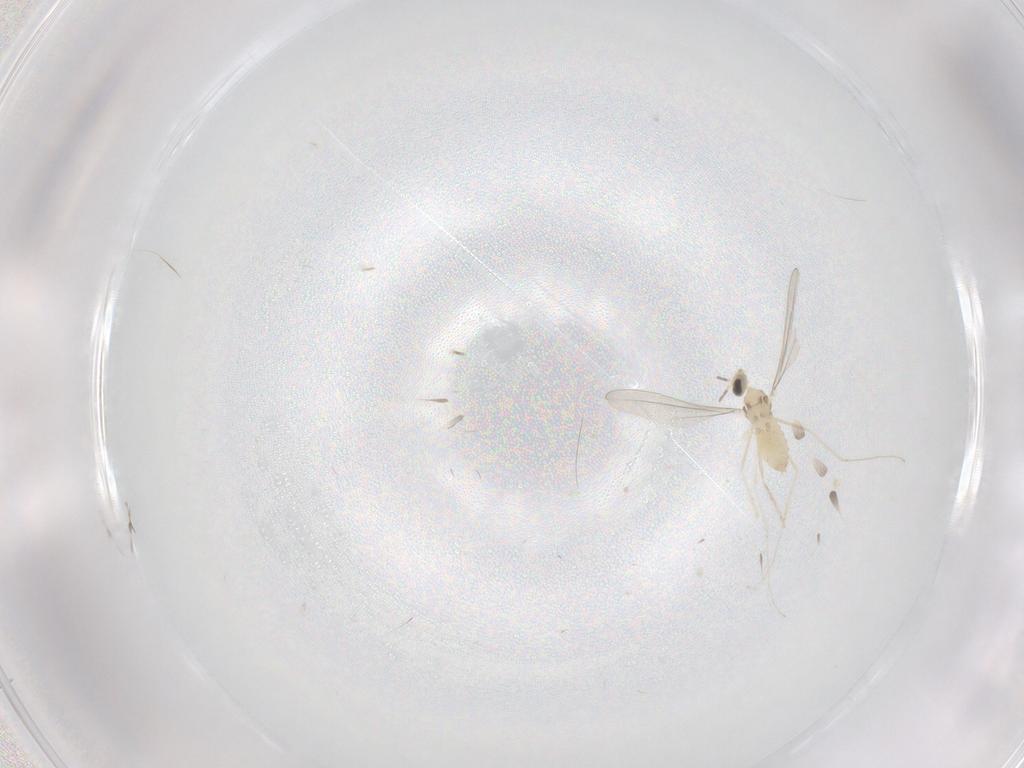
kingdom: Animalia
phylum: Arthropoda
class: Insecta
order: Diptera
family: Cecidomyiidae
